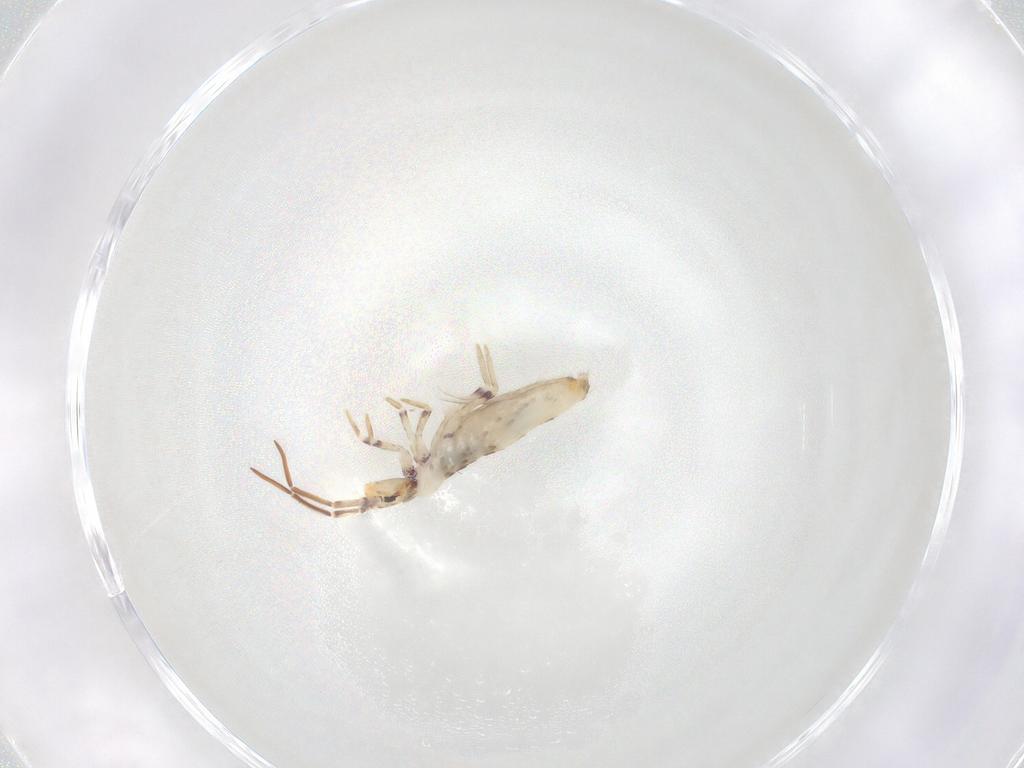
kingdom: Animalia
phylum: Arthropoda
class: Collembola
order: Entomobryomorpha
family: Entomobryidae
